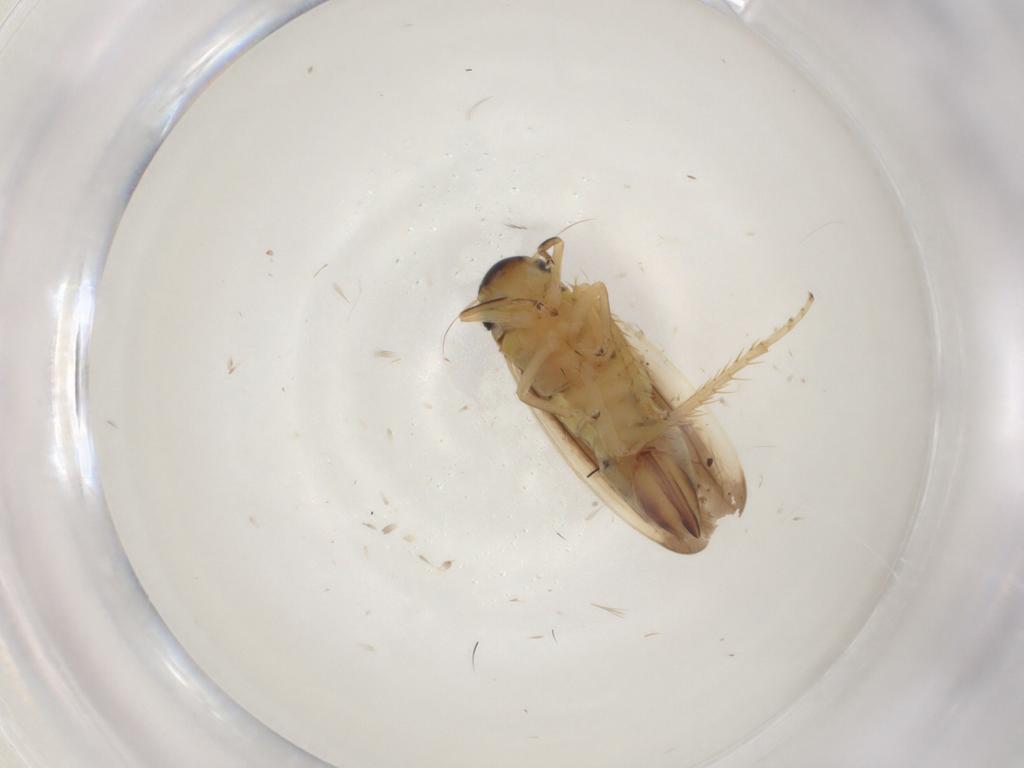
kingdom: Animalia
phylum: Arthropoda
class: Insecta
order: Hemiptera
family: Cicadellidae
